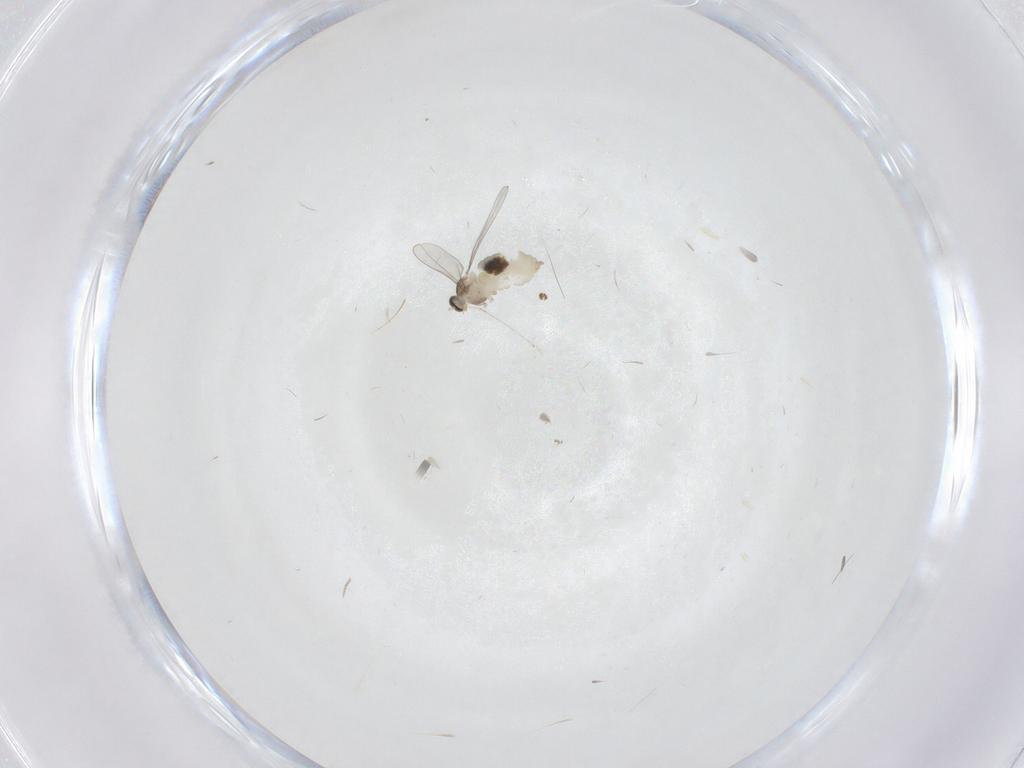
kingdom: Animalia
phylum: Arthropoda
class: Insecta
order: Diptera
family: Cecidomyiidae
